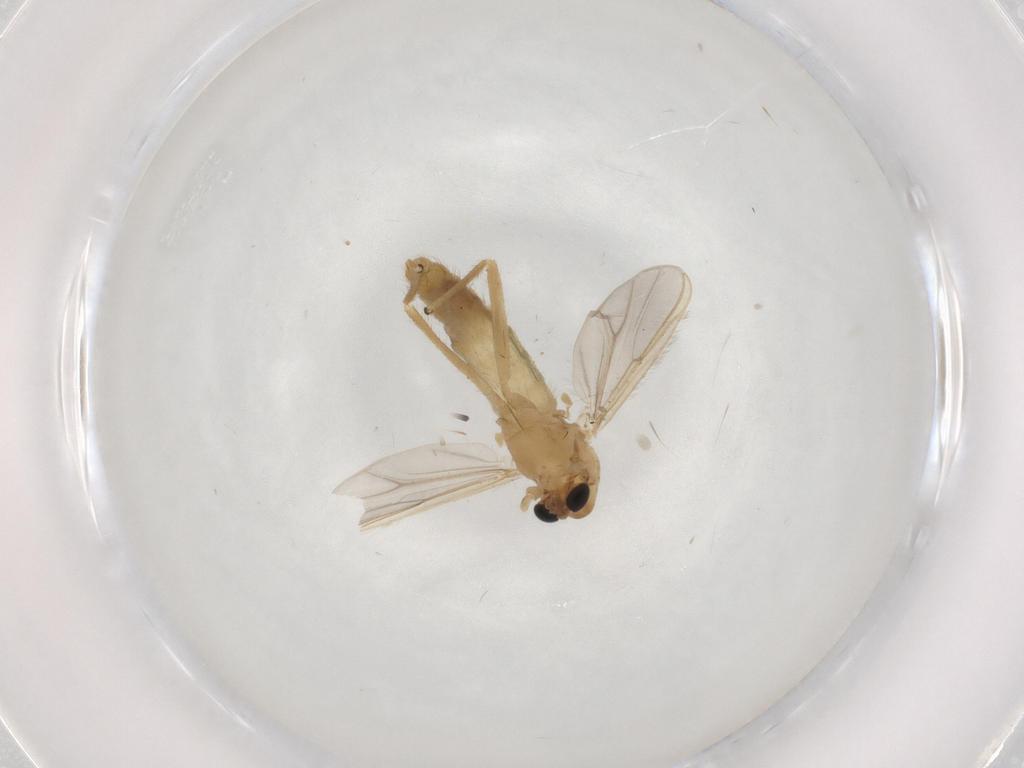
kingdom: Animalia
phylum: Arthropoda
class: Insecta
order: Diptera
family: Chironomidae
